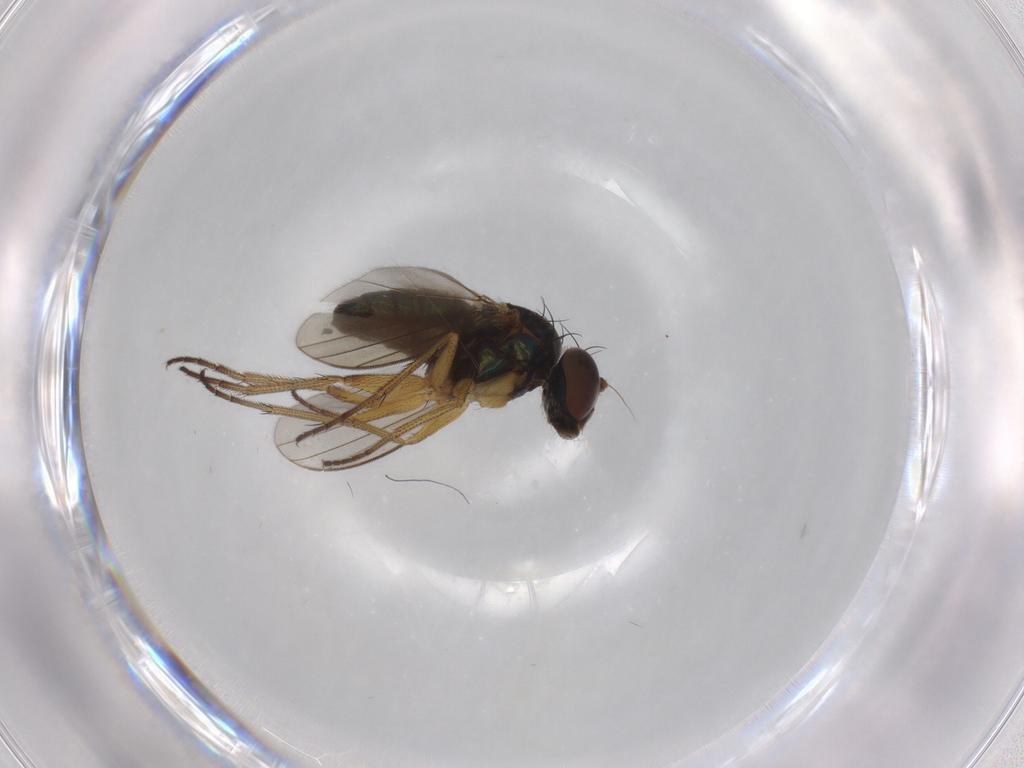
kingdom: Animalia
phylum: Arthropoda
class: Insecta
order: Diptera
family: Dolichopodidae
